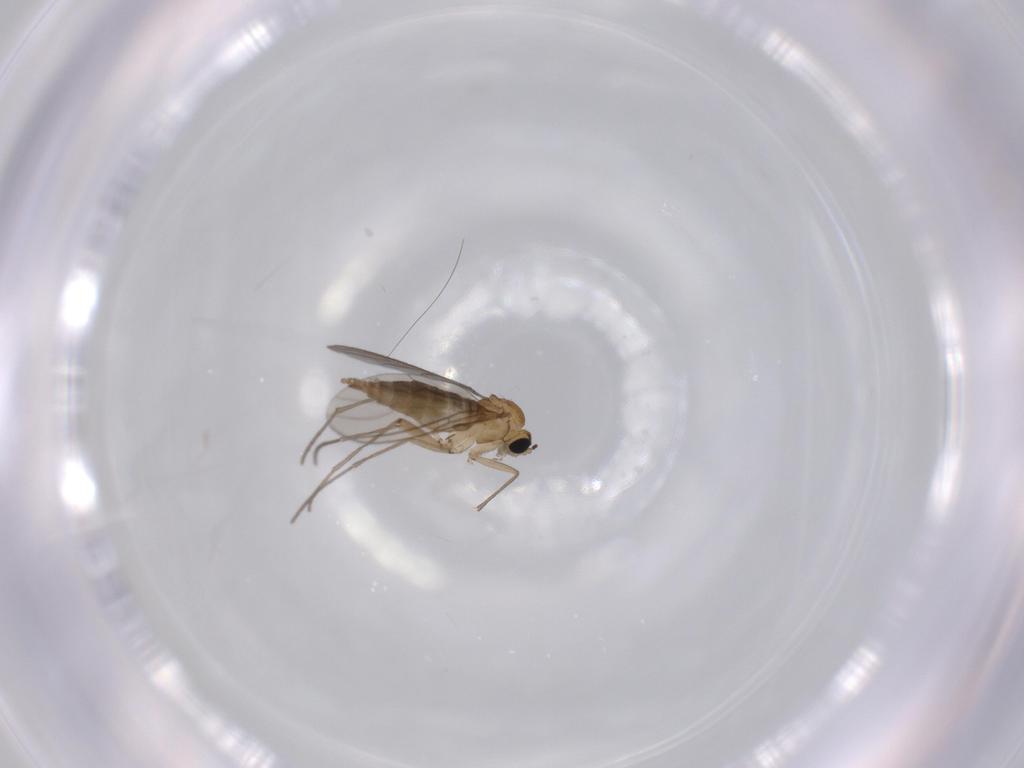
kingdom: Animalia
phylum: Arthropoda
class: Insecta
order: Diptera
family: Sciaridae
